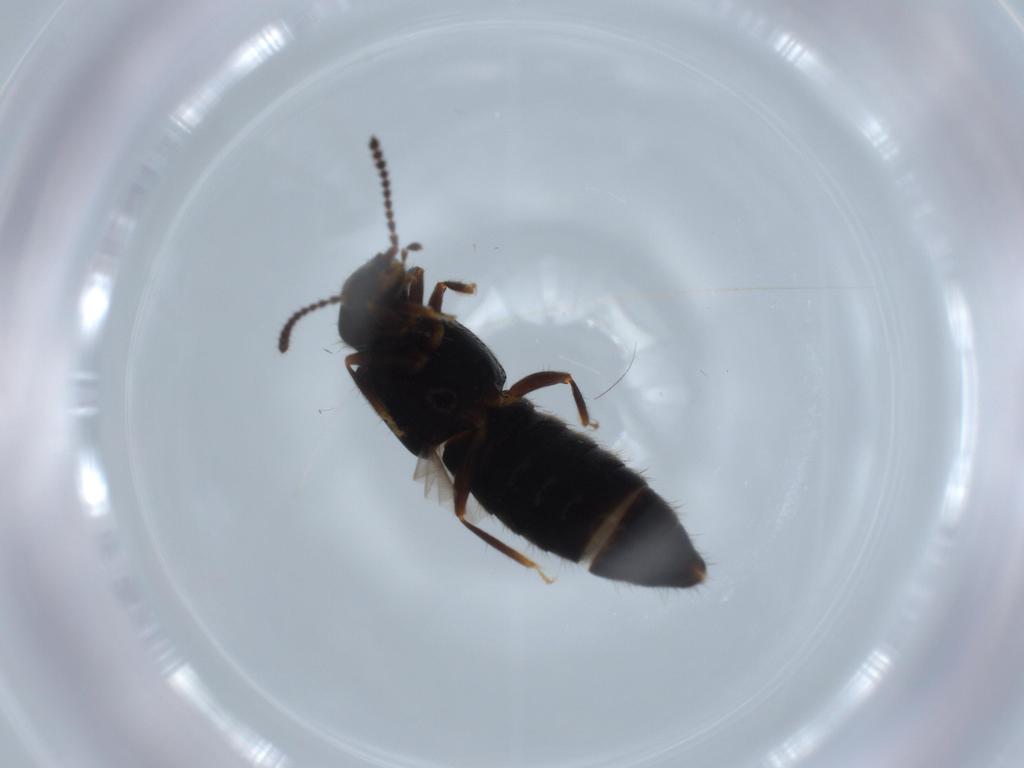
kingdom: Animalia
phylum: Arthropoda
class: Insecta
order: Coleoptera
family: Staphylinidae
